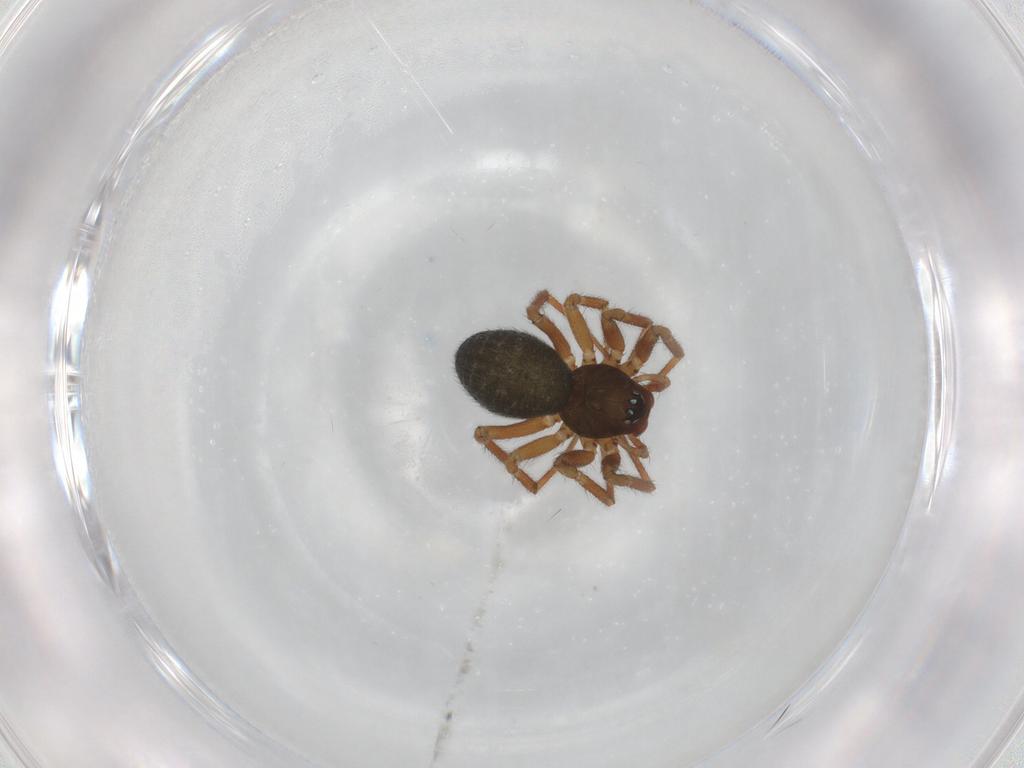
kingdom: Animalia
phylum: Arthropoda
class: Arachnida
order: Araneae
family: Linyphiidae
